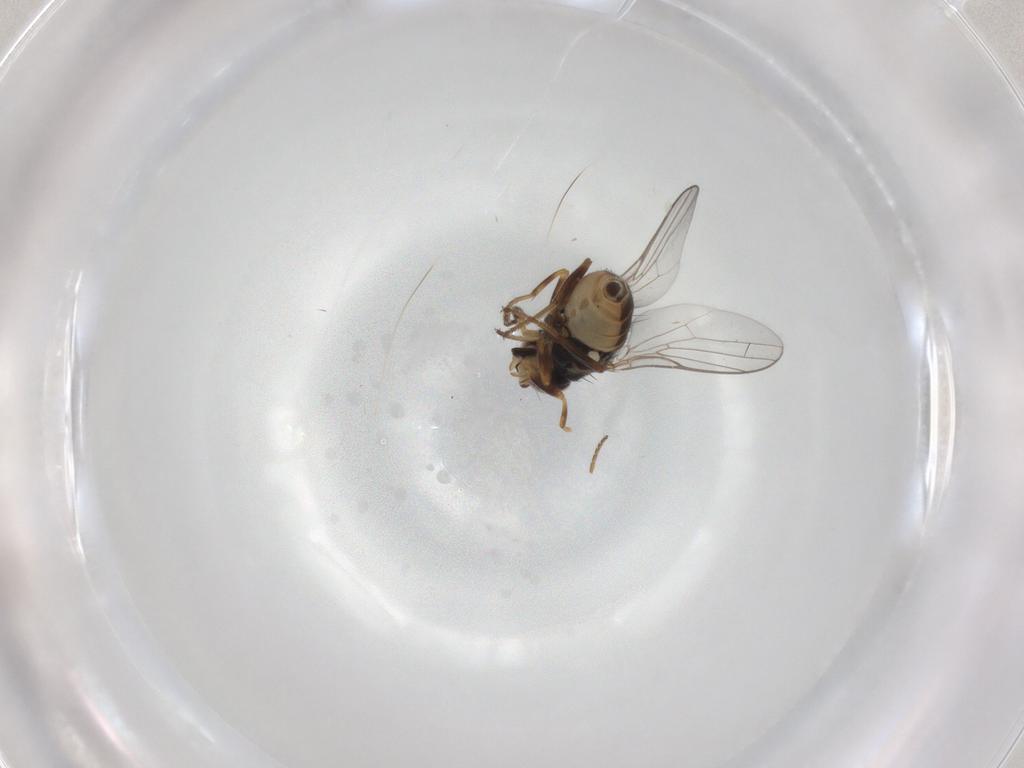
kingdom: Animalia
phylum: Arthropoda
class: Insecta
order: Diptera
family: Chloropidae
